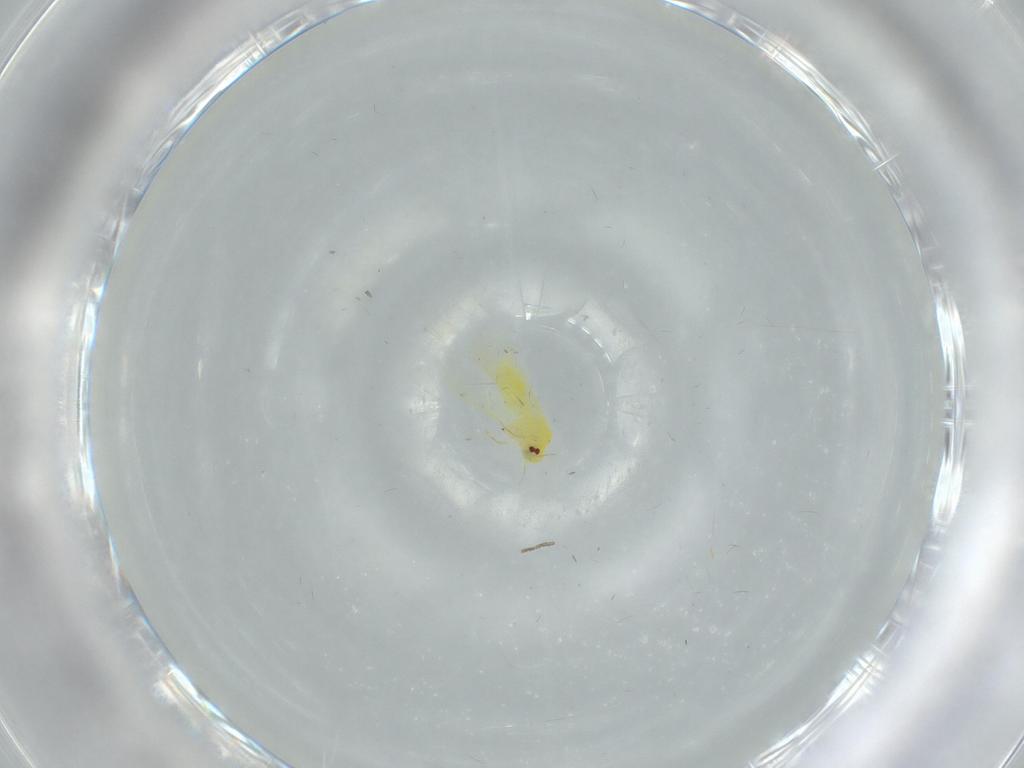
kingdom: Animalia
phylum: Arthropoda
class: Insecta
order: Hemiptera
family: Aleyrodidae
